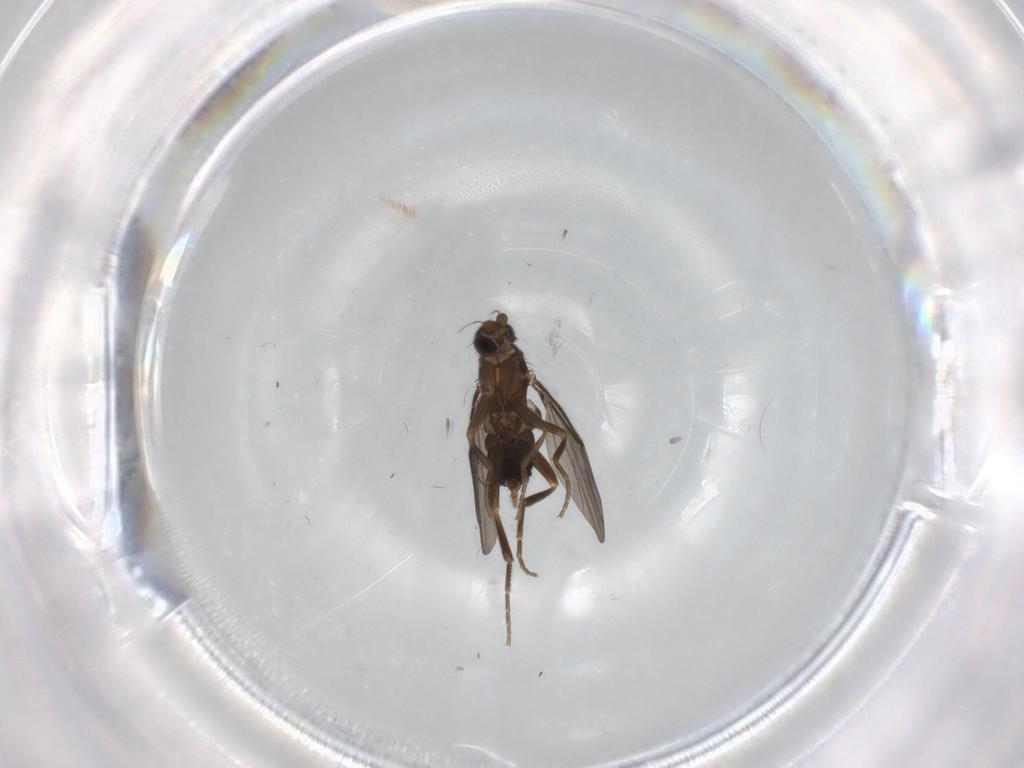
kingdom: Animalia
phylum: Arthropoda
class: Insecta
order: Diptera
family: Phoridae
